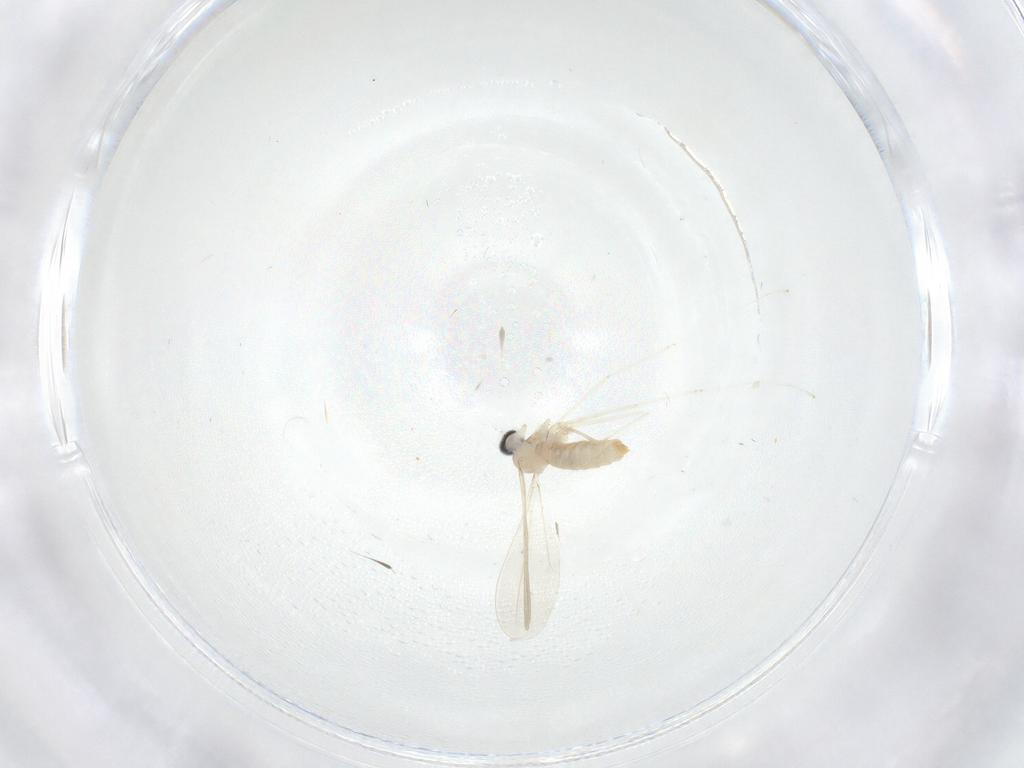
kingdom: Animalia
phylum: Arthropoda
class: Insecta
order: Diptera
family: Cecidomyiidae
